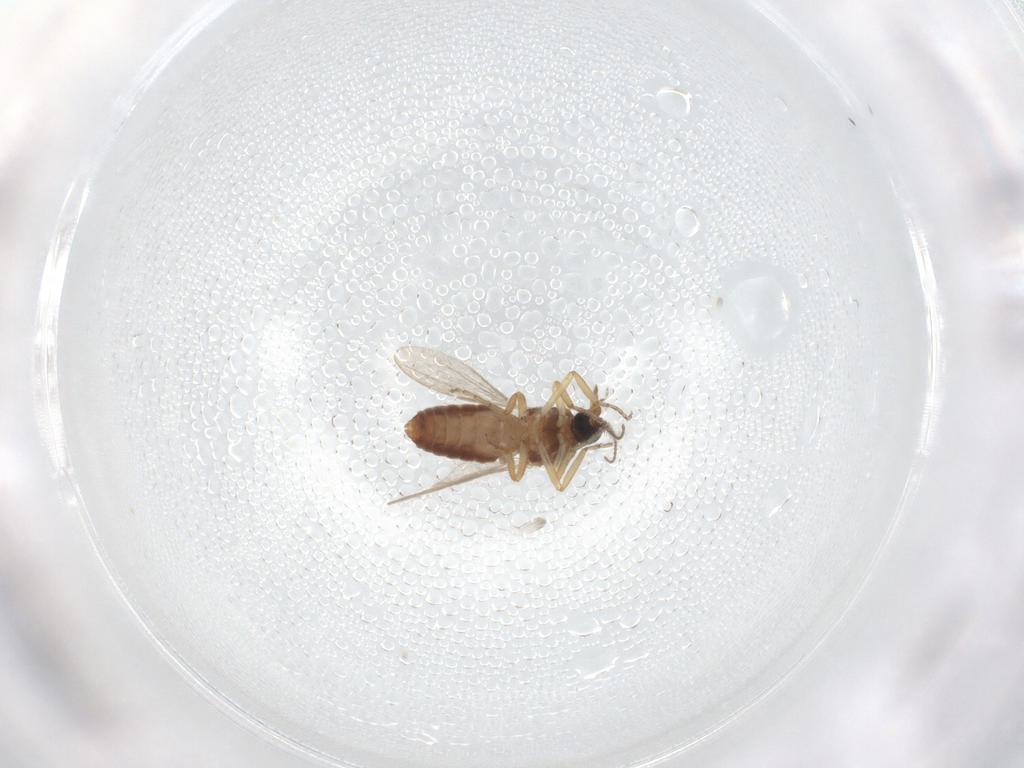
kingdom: Animalia
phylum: Arthropoda
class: Insecta
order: Diptera
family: Ceratopogonidae
